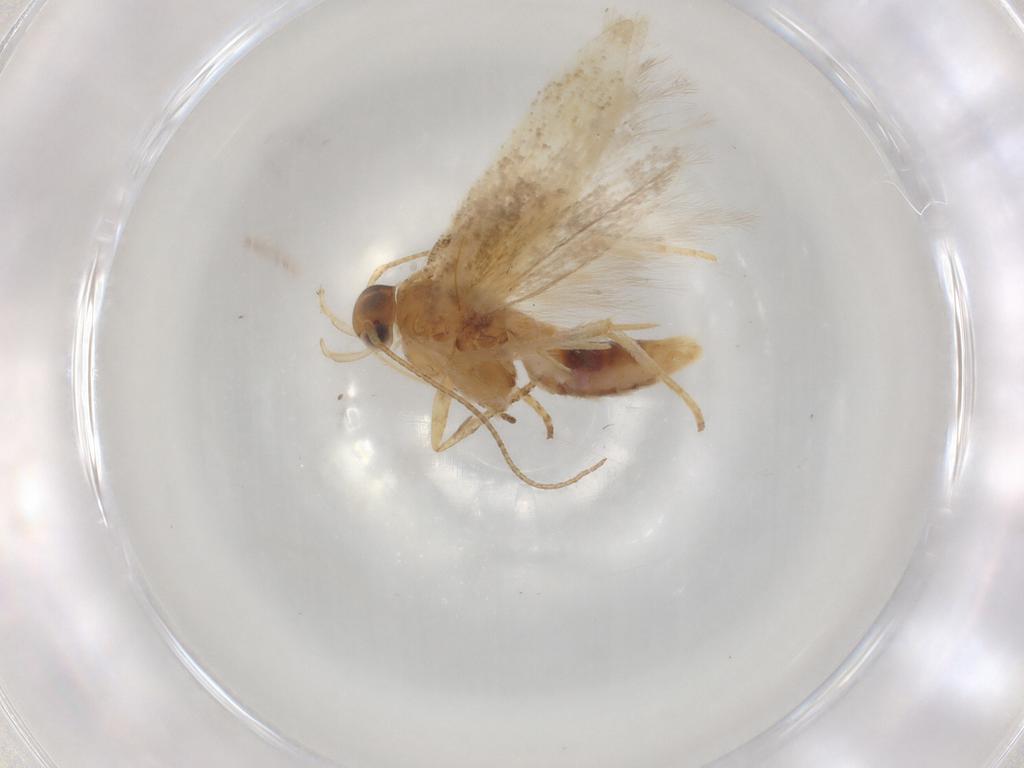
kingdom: Animalia
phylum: Arthropoda
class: Insecta
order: Lepidoptera
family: Gelechiidae
